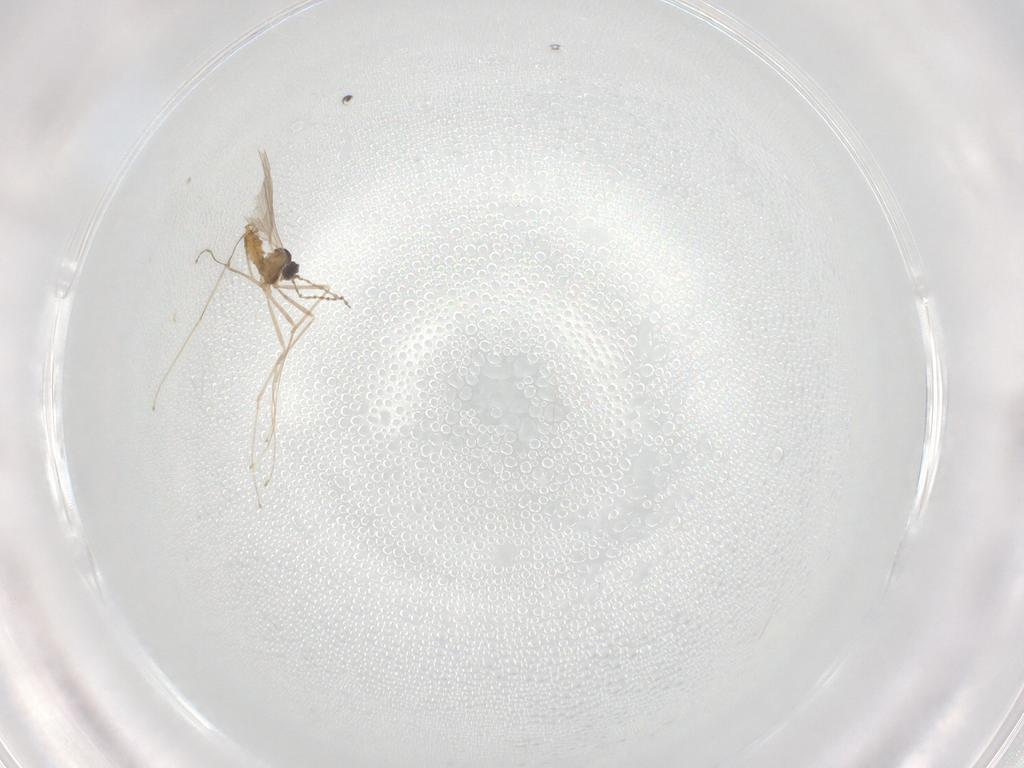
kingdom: Animalia
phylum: Arthropoda
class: Insecta
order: Diptera
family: Cecidomyiidae
